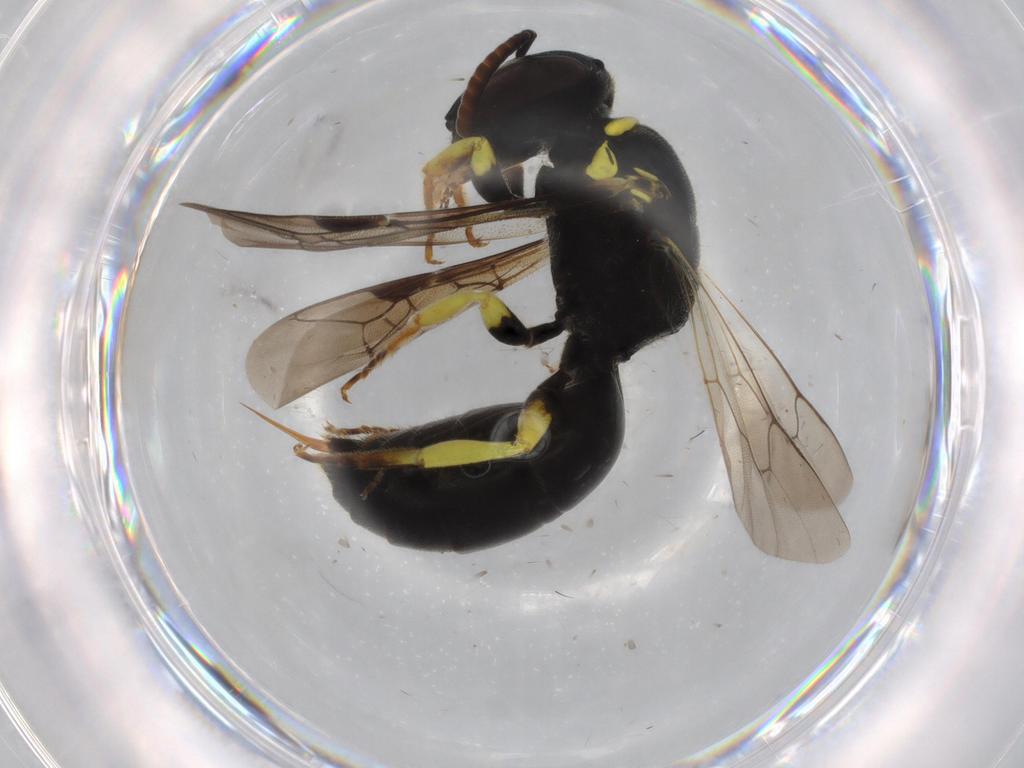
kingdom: Animalia
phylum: Arthropoda
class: Insecta
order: Hymenoptera
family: Colletidae
